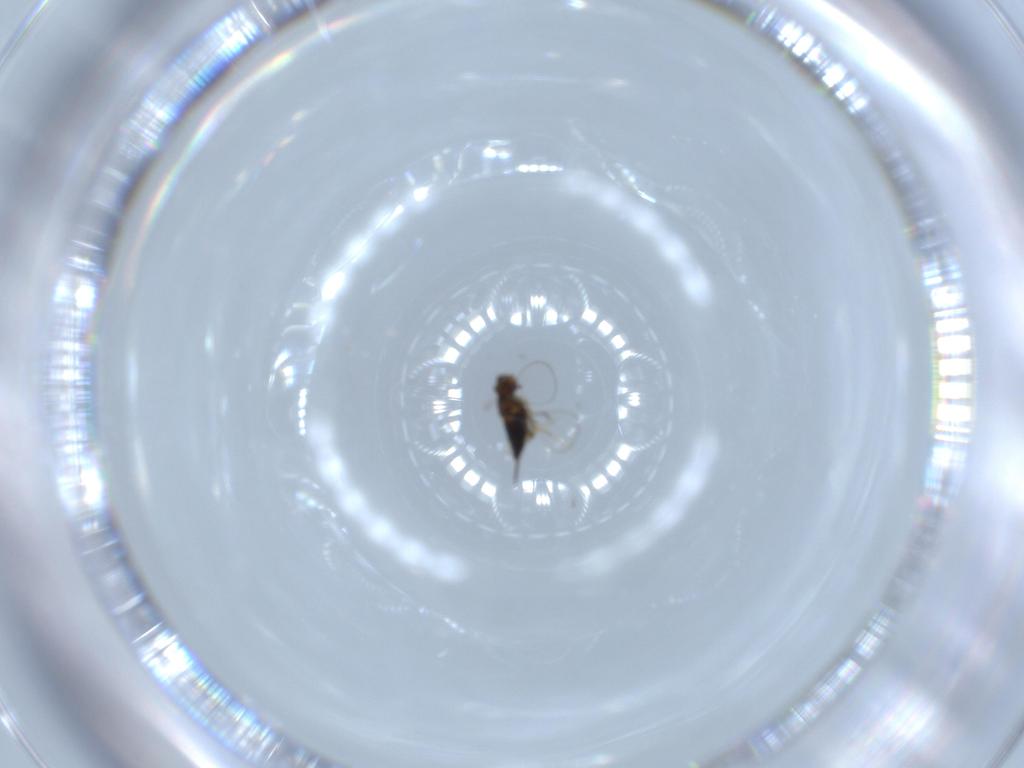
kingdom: Animalia
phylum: Arthropoda
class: Insecta
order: Hymenoptera
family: Trichogrammatidae
